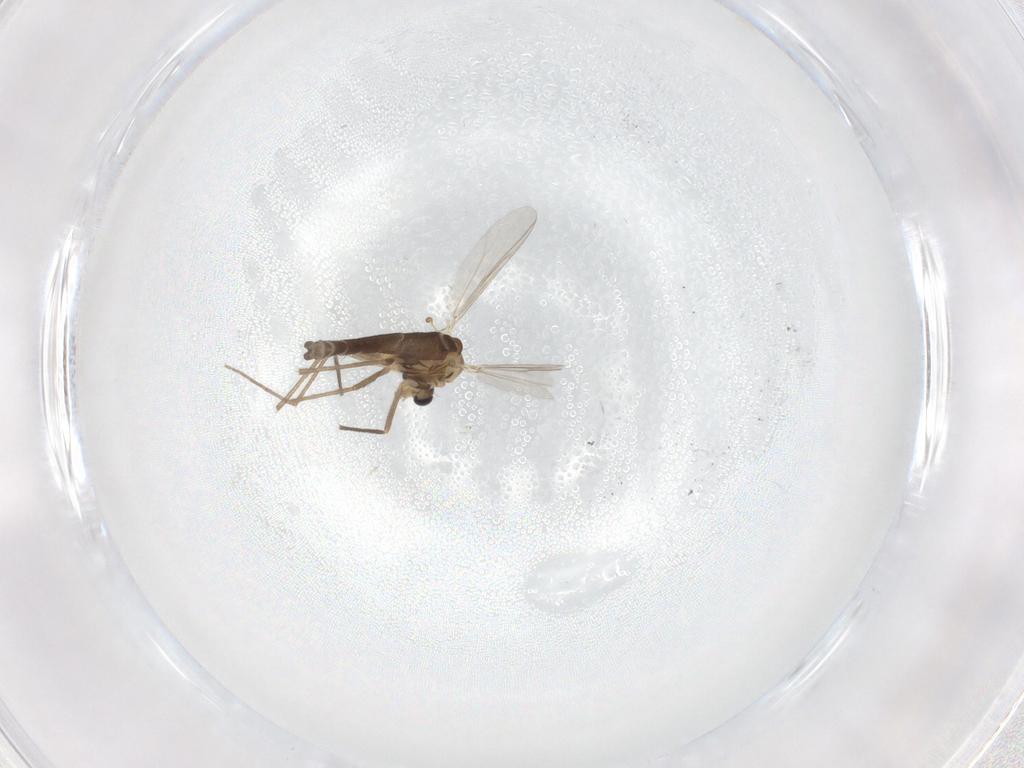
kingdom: Animalia
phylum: Arthropoda
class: Insecta
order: Diptera
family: Chironomidae
